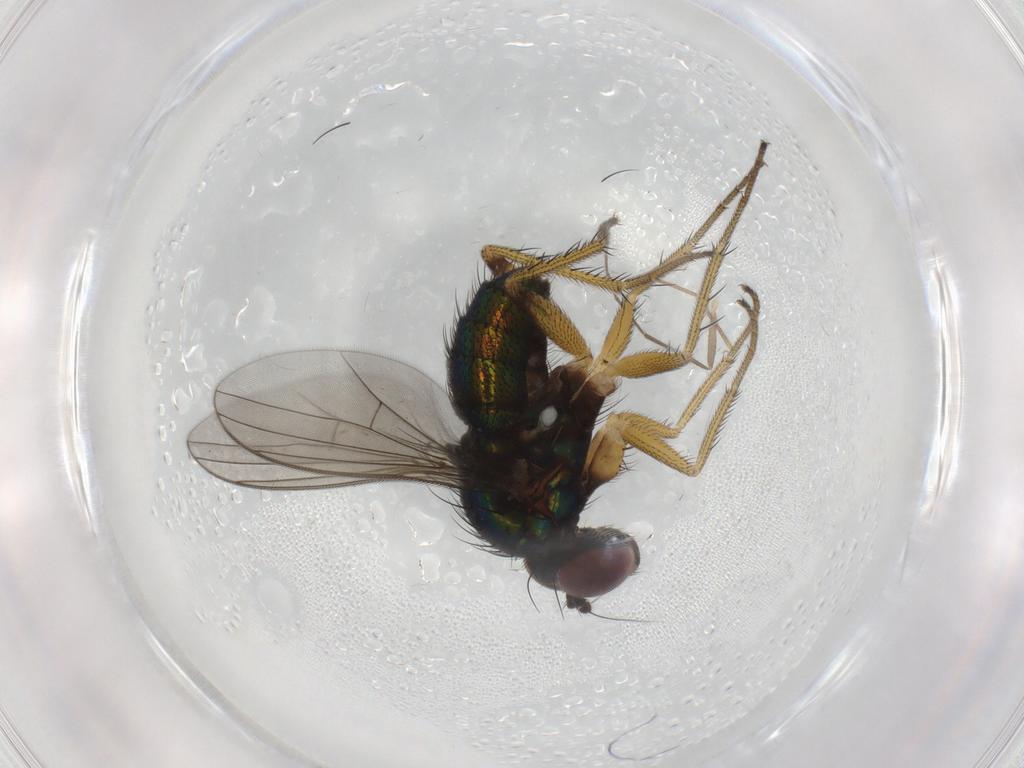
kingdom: Animalia
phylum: Arthropoda
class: Insecta
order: Diptera
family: Dolichopodidae
